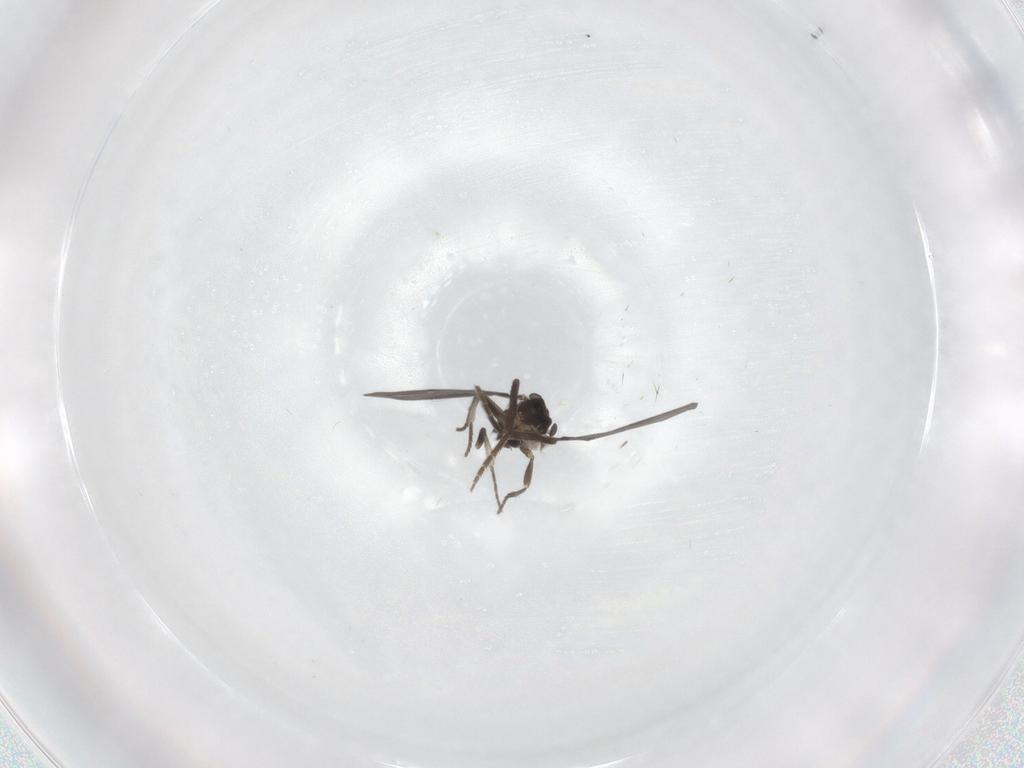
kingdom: Animalia
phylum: Arthropoda
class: Insecta
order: Diptera
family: Phoridae
